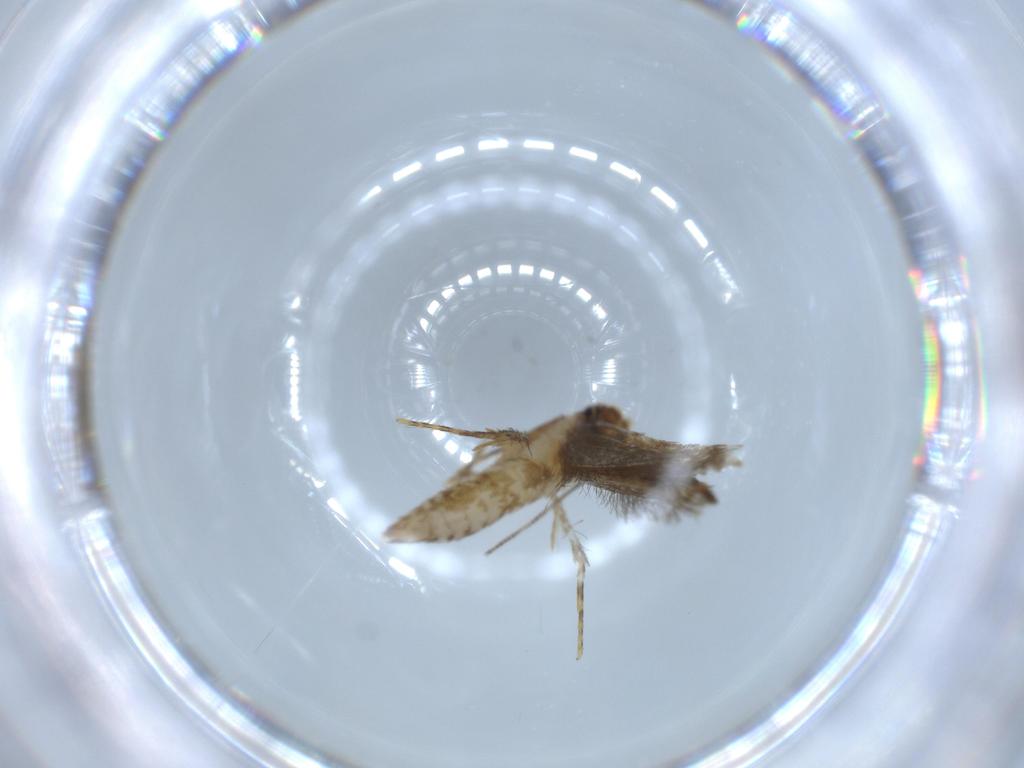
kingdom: Animalia
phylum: Arthropoda
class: Insecta
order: Lepidoptera
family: Tineidae
